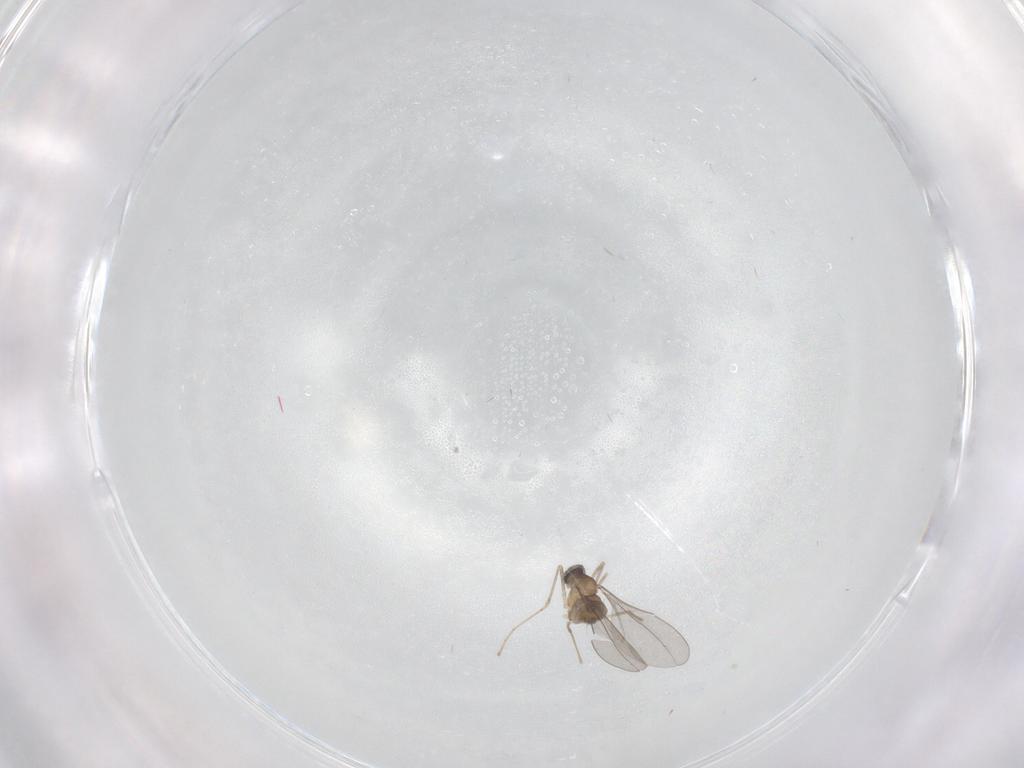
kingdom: Animalia
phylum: Arthropoda
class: Insecta
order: Diptera
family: Cecidomyiidae
